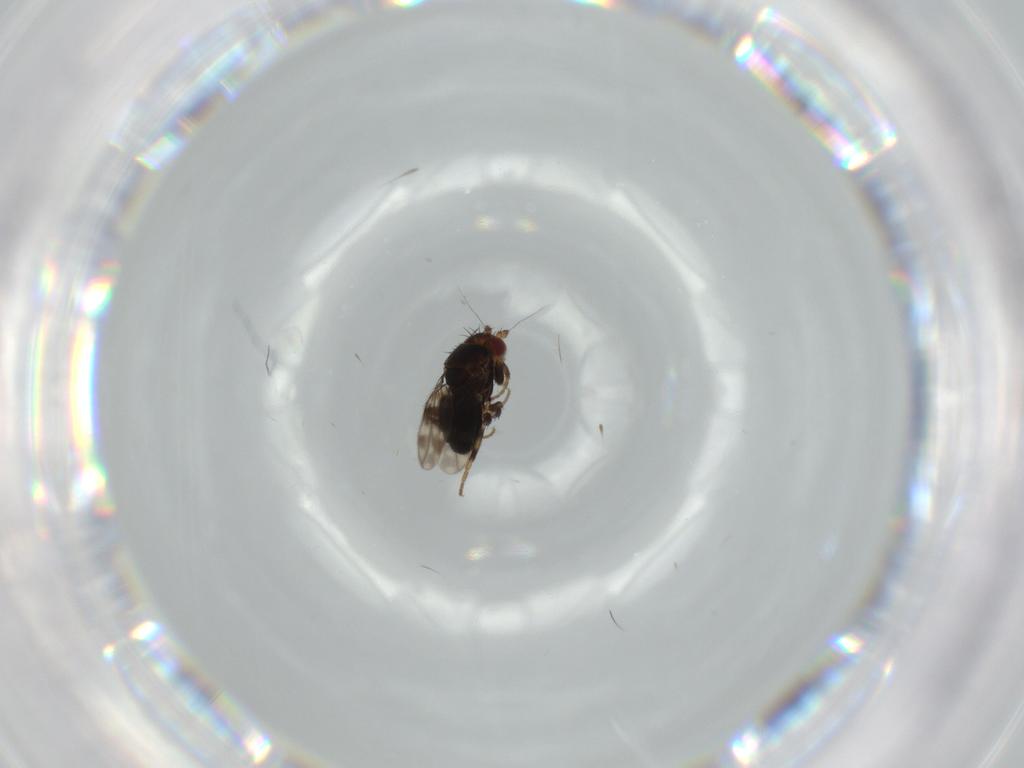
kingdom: Animalia
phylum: Arthropoda
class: Insecta
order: Diptera
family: Sphaeroceridae
